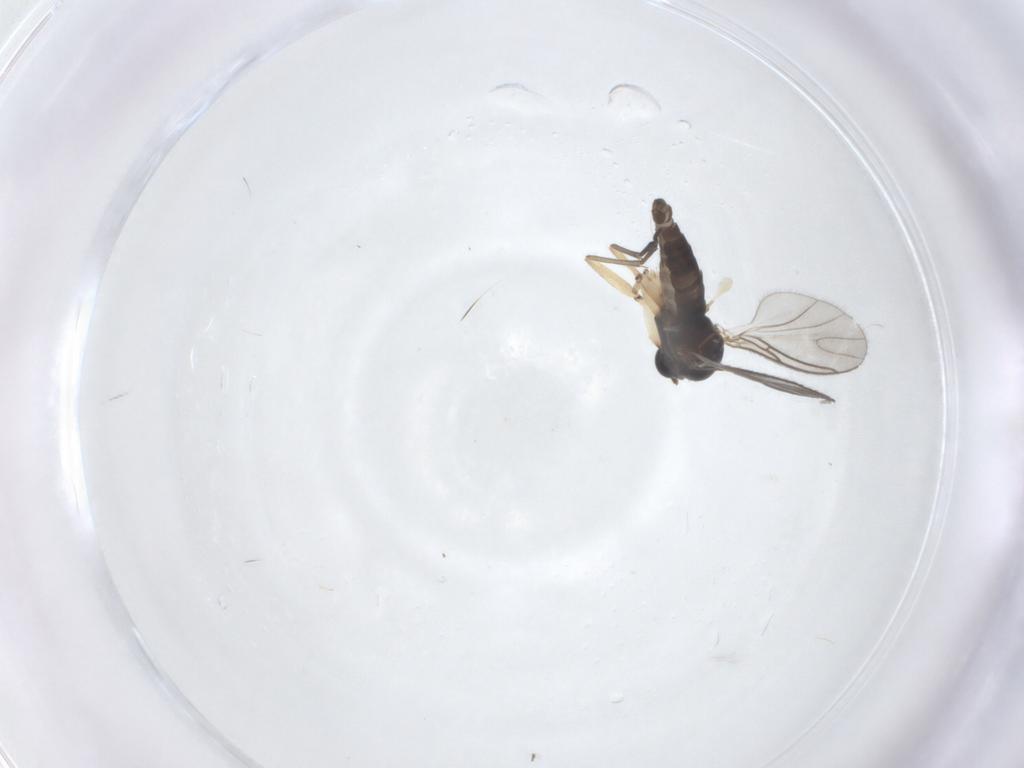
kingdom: Animalia
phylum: Arthropoda
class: Insecta
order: Diptera
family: Sciaridae
